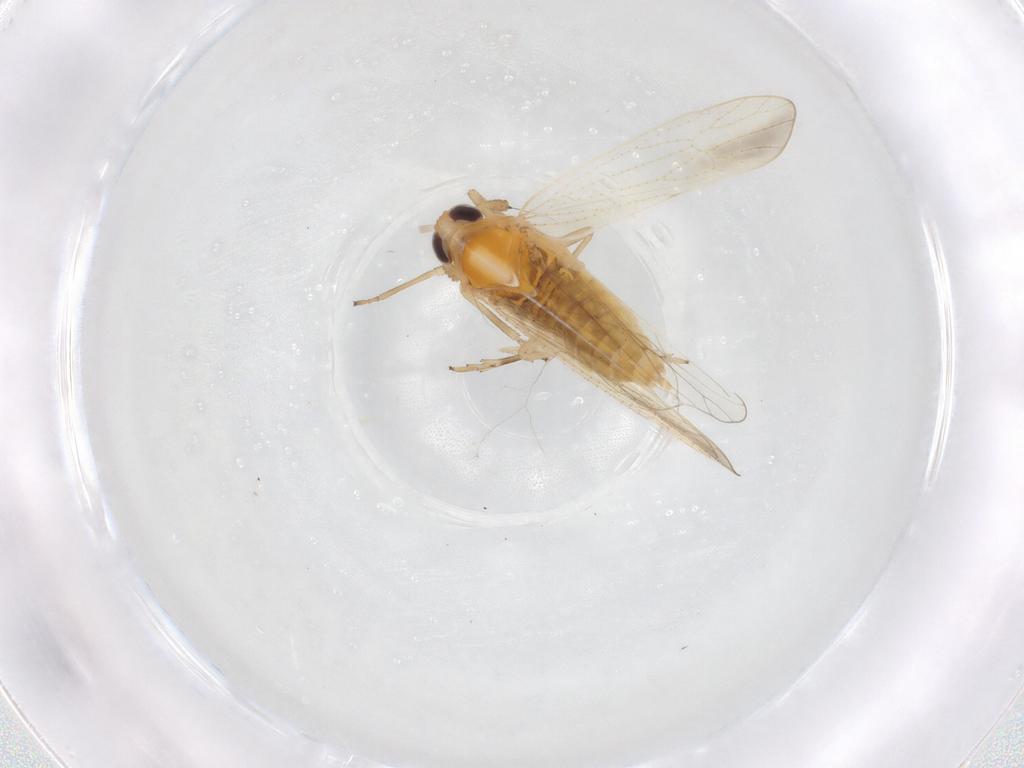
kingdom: Animalia
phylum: Arthropoda
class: Insecta
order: Hemiptera
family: Delphacidae
